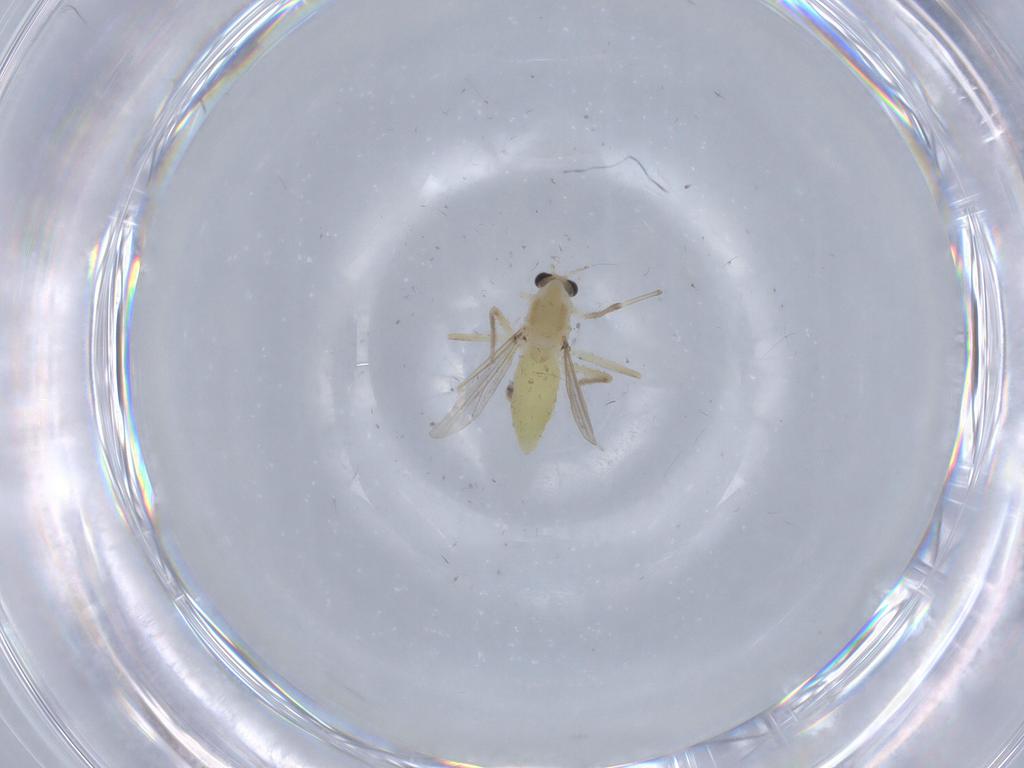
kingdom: Animalia
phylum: Arthropoda
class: Insecta
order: Diptera
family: Chironomidae
